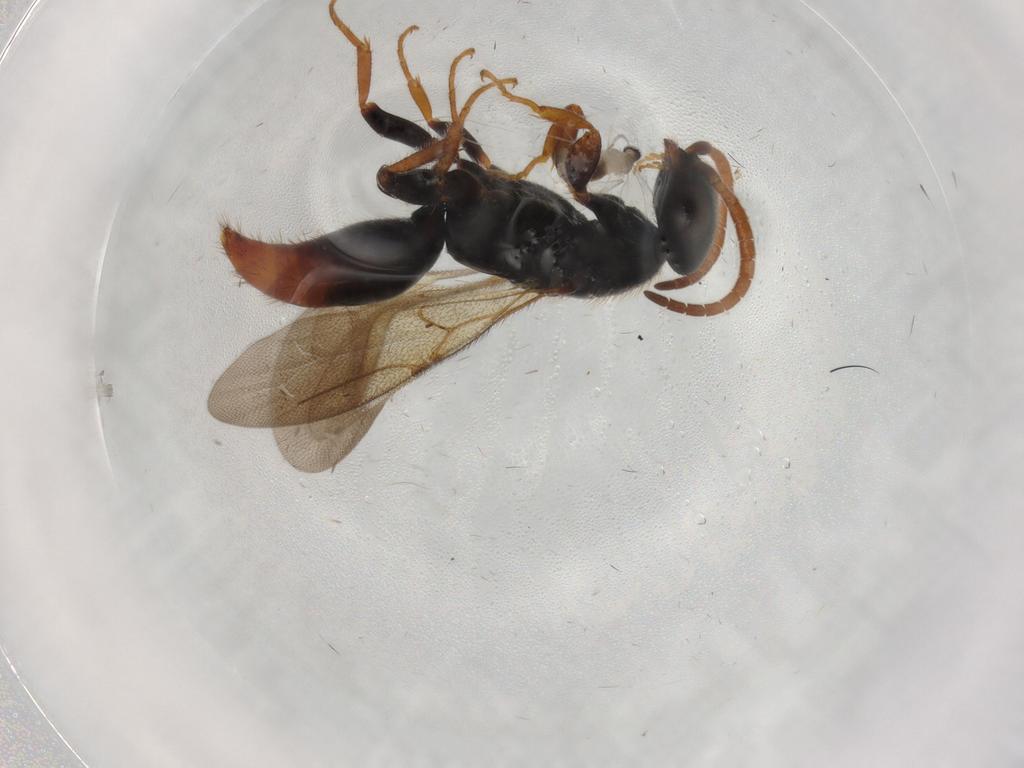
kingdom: Animalia
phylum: Arthropoda
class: Insecta
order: Hymenoptera
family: Bethylidae
